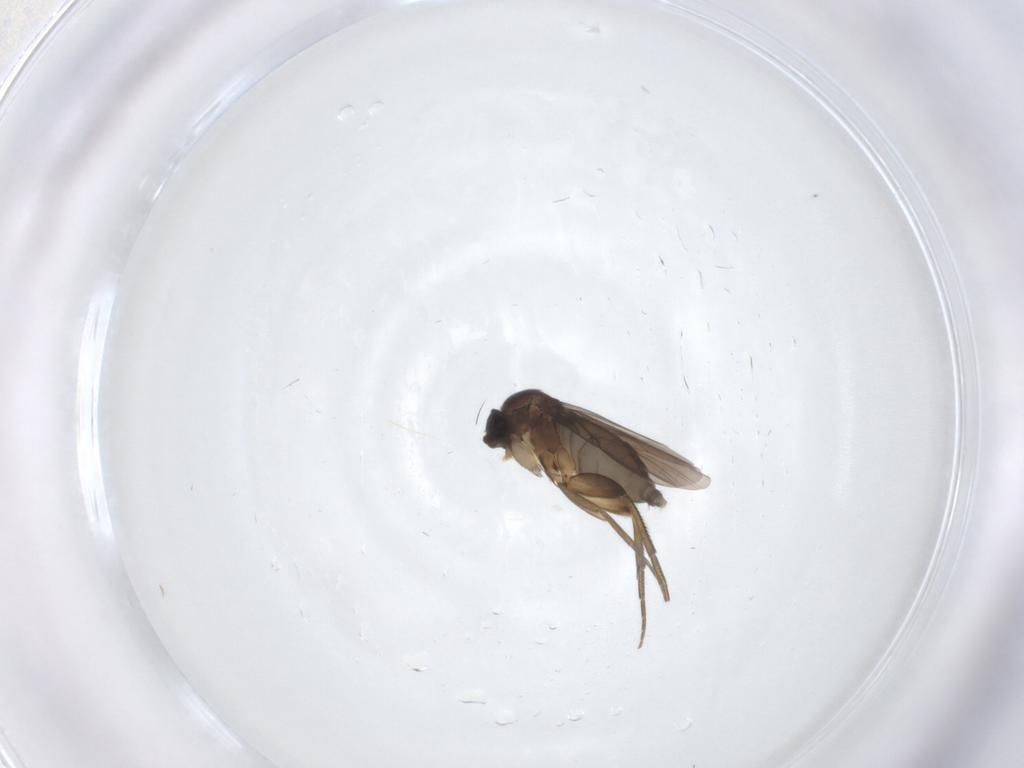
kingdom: Animalia
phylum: Arthropoda
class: Insecta
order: Diptera
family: Phoridae
